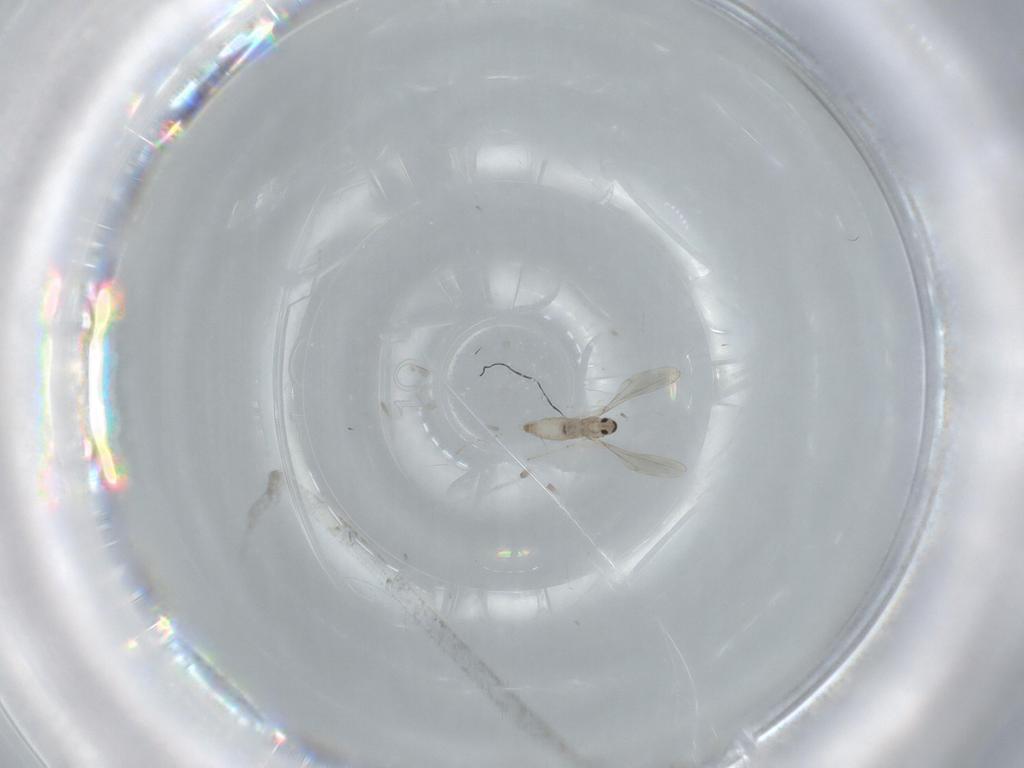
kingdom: Animalia
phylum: Arthropoda
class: Insecta
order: Diptera
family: Cecidomyiidae
